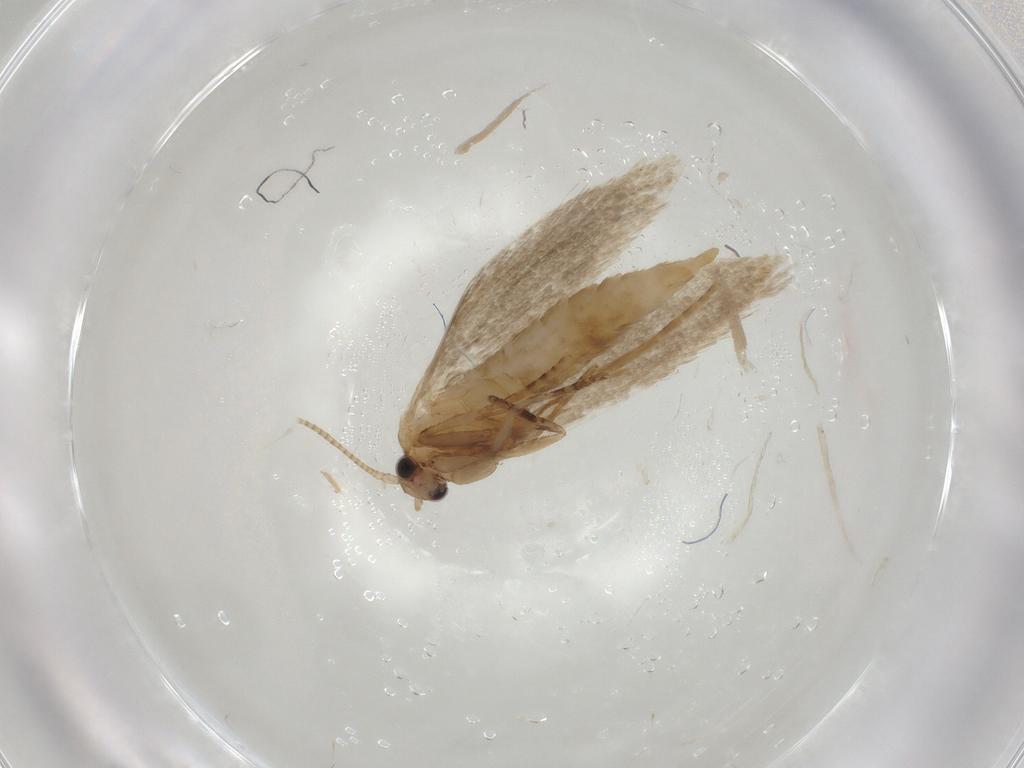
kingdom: Animalia
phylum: Arthropoda
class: Insecta
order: Lepidoptera
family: Nepticulidae
